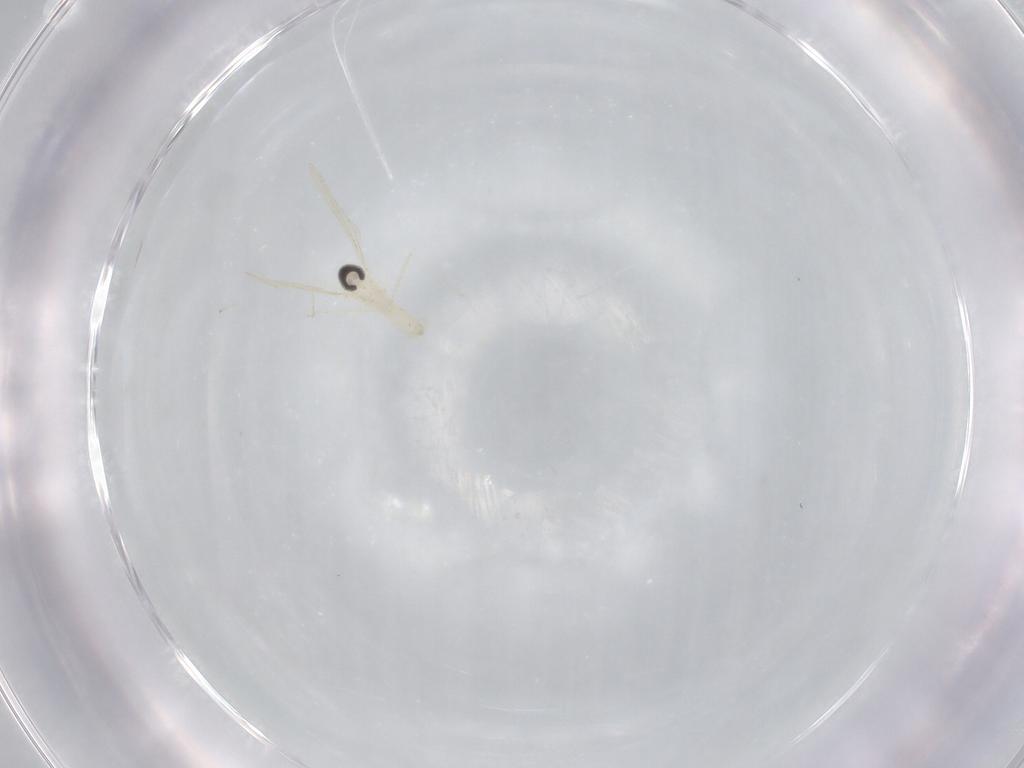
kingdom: Animalia
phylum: Arthropoda
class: Insecta
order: Diptera
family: Cecidomyiidae
